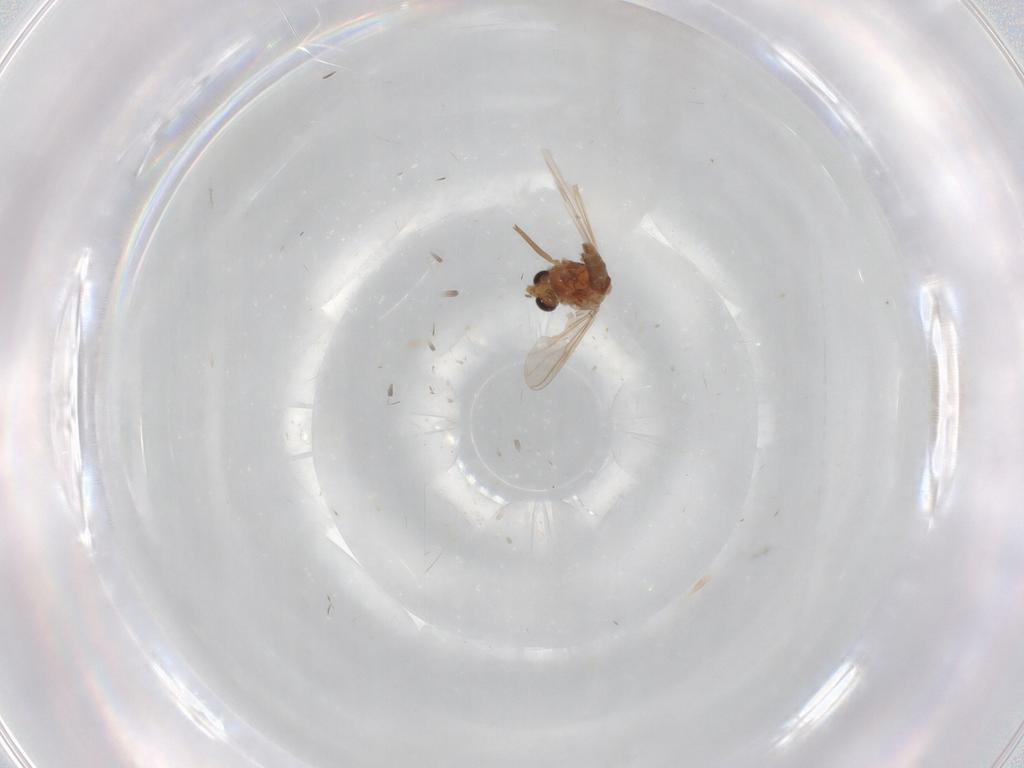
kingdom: Animalia
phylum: Arthropoda
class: Insecta
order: Diptera
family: Chironomidae
